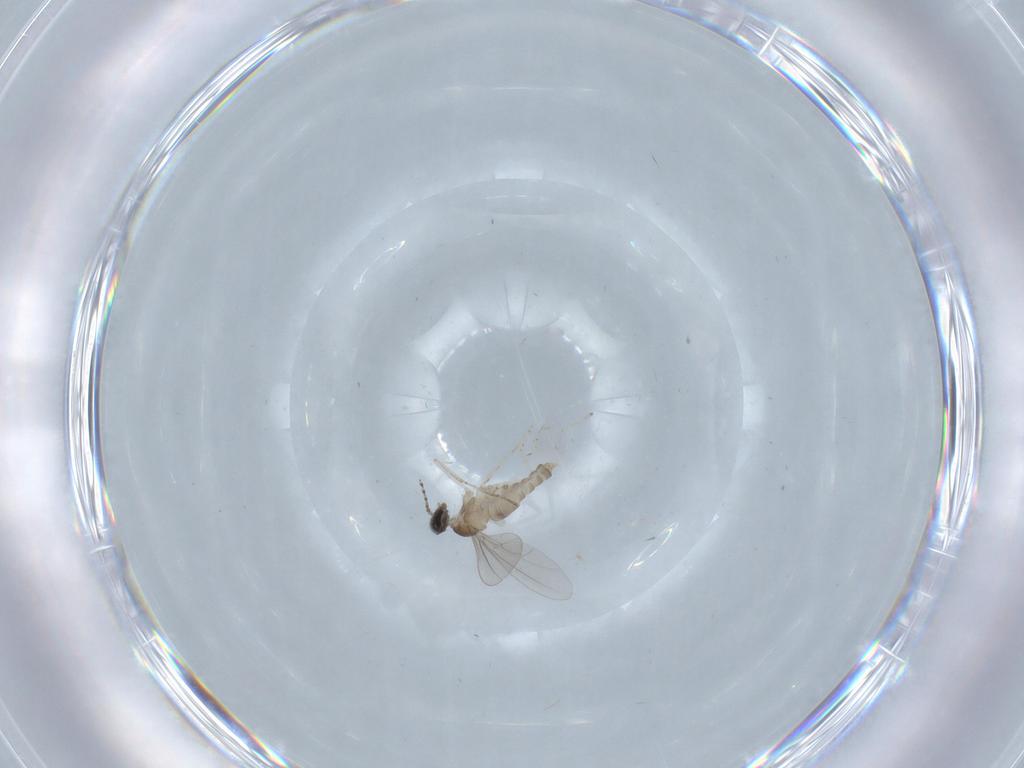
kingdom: Animalia
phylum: Arthropoda
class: Insecta
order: Diptera
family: Cecidomyiidae
